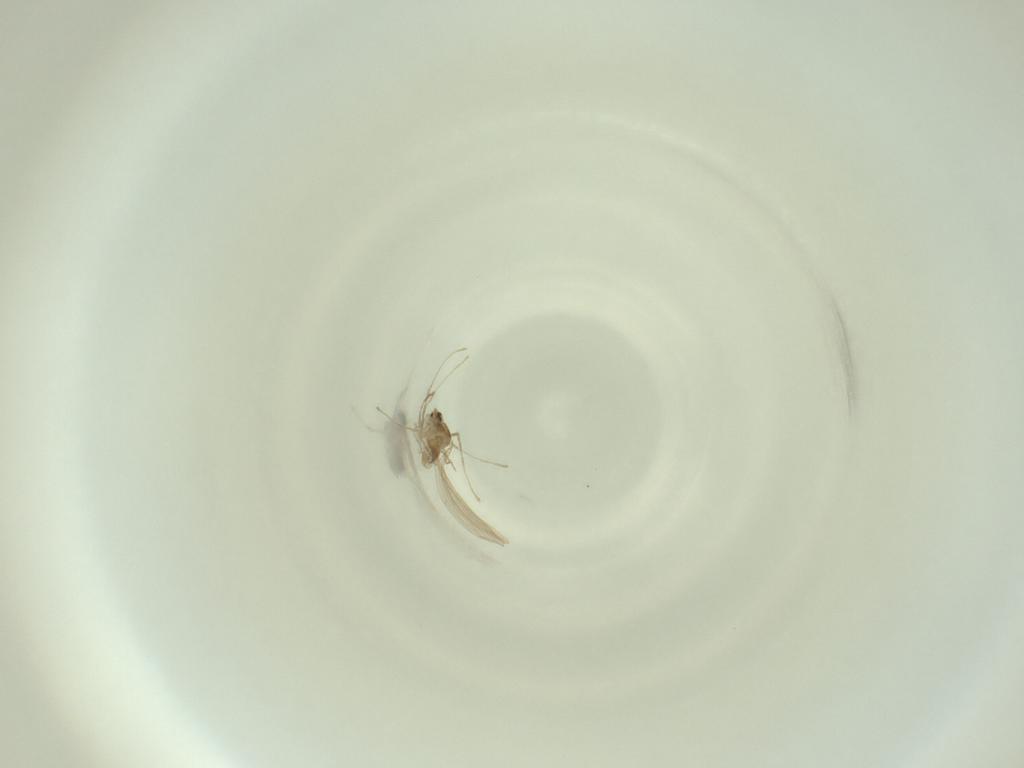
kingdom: Animalia
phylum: Arthropoda
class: Insecta
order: Diptera
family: Cecidomyiidae
